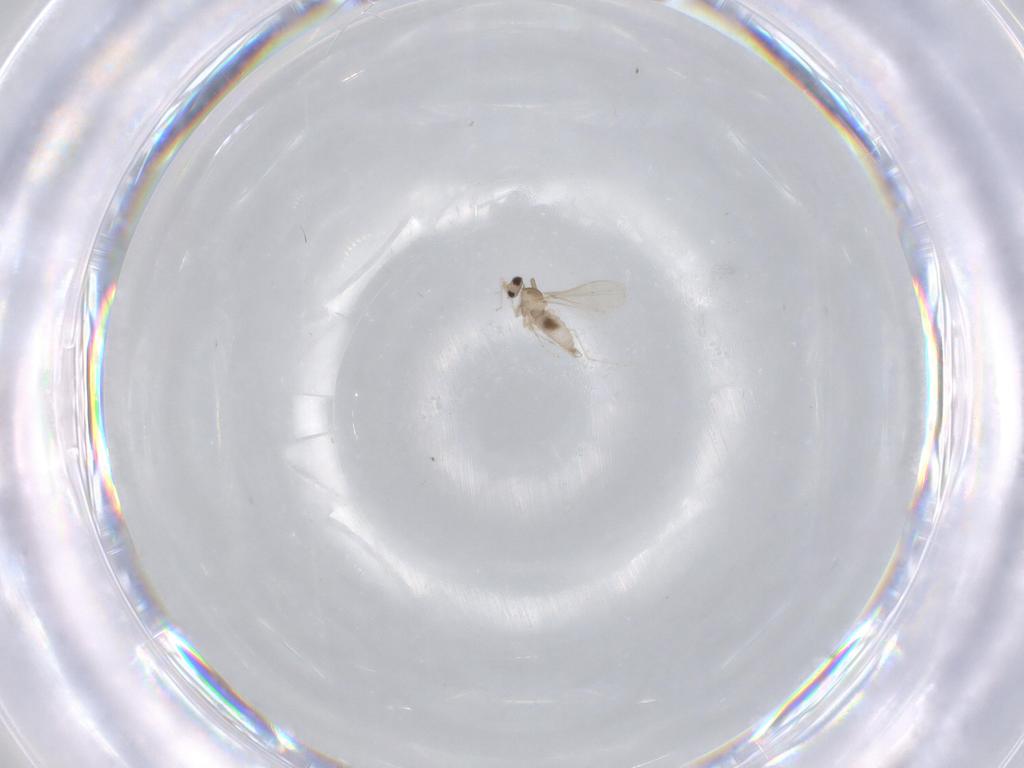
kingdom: Animalia
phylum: Arthropoda
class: Insecta
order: Diptera
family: Cecidomyiidae
